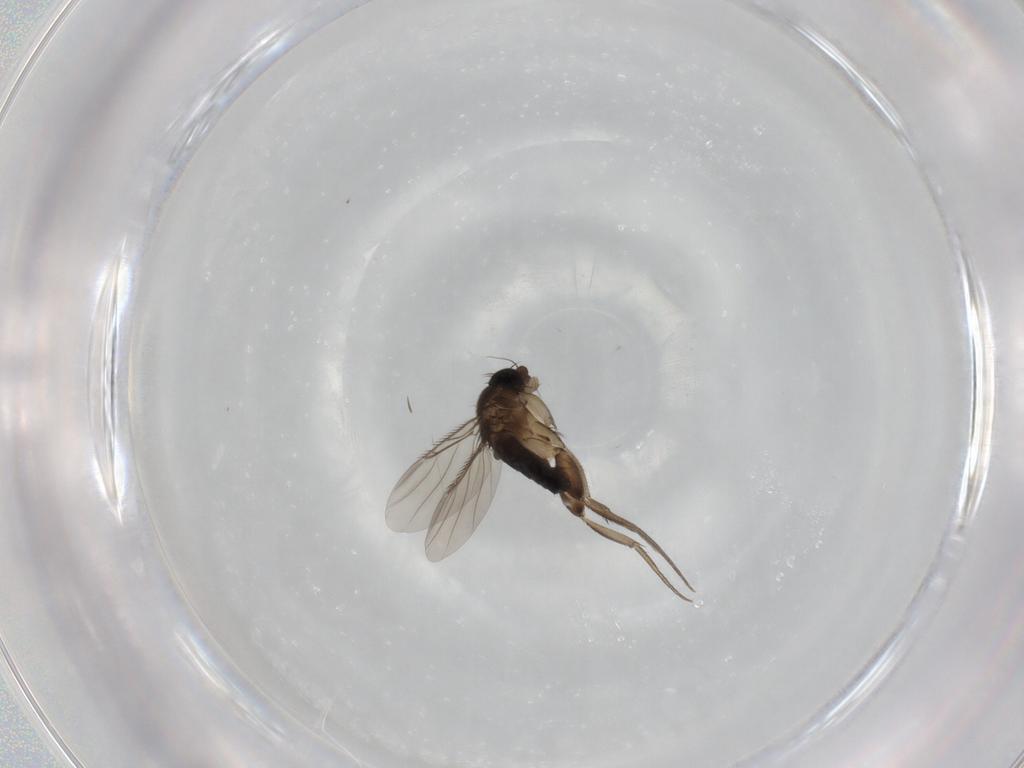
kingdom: Animalia
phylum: Arthropoda
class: Insecta
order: Diptera
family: Phoridae
